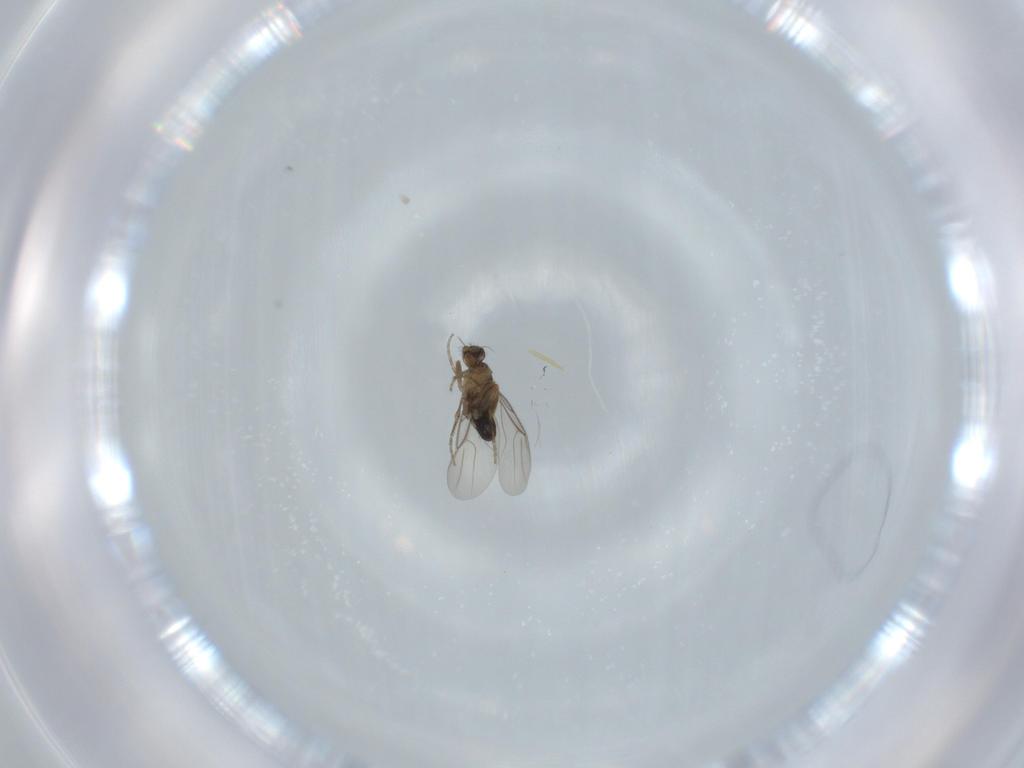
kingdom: Animalia
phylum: Arthropoda
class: Insecta
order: Diptera
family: Phoridae
